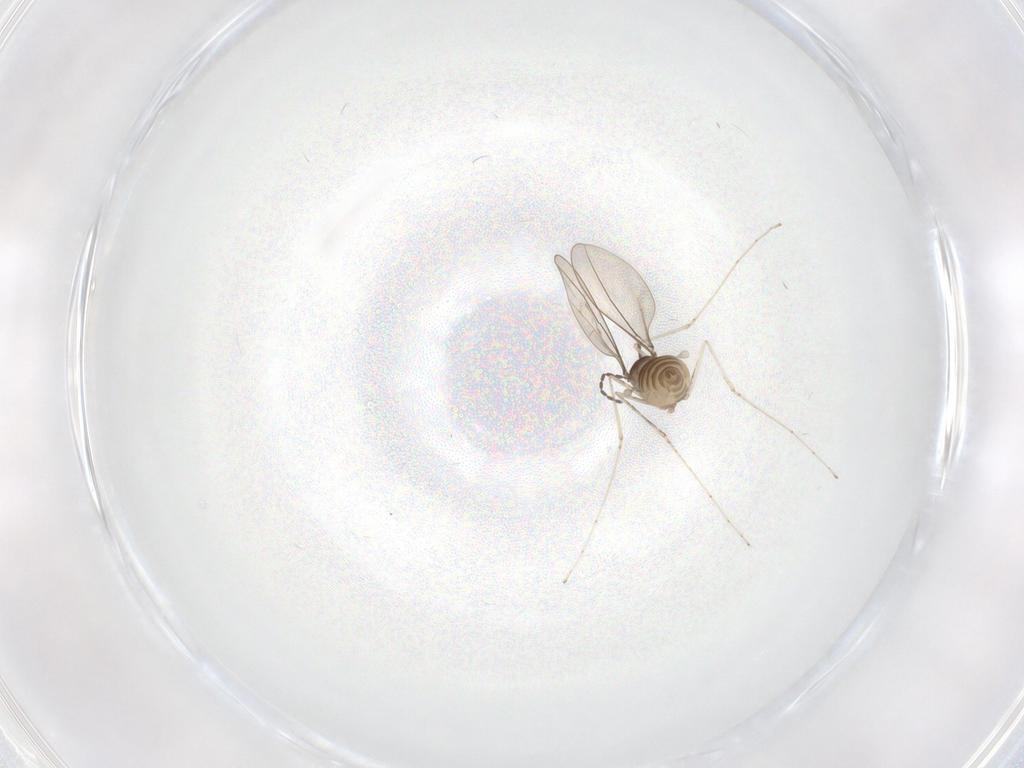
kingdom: Animalia
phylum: Arthropoda
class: Insecta
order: Diptera
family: Cecidomyiidae
